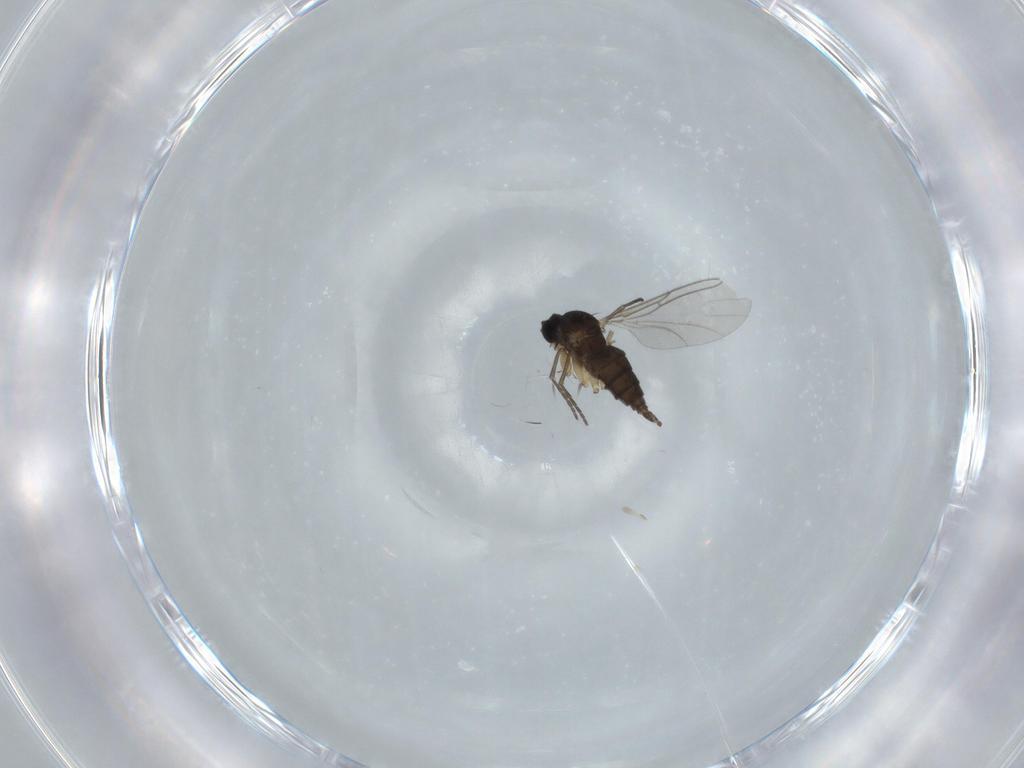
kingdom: Animalia
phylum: Arthropoda
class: Insecta
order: Diptera
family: Sciaridae
